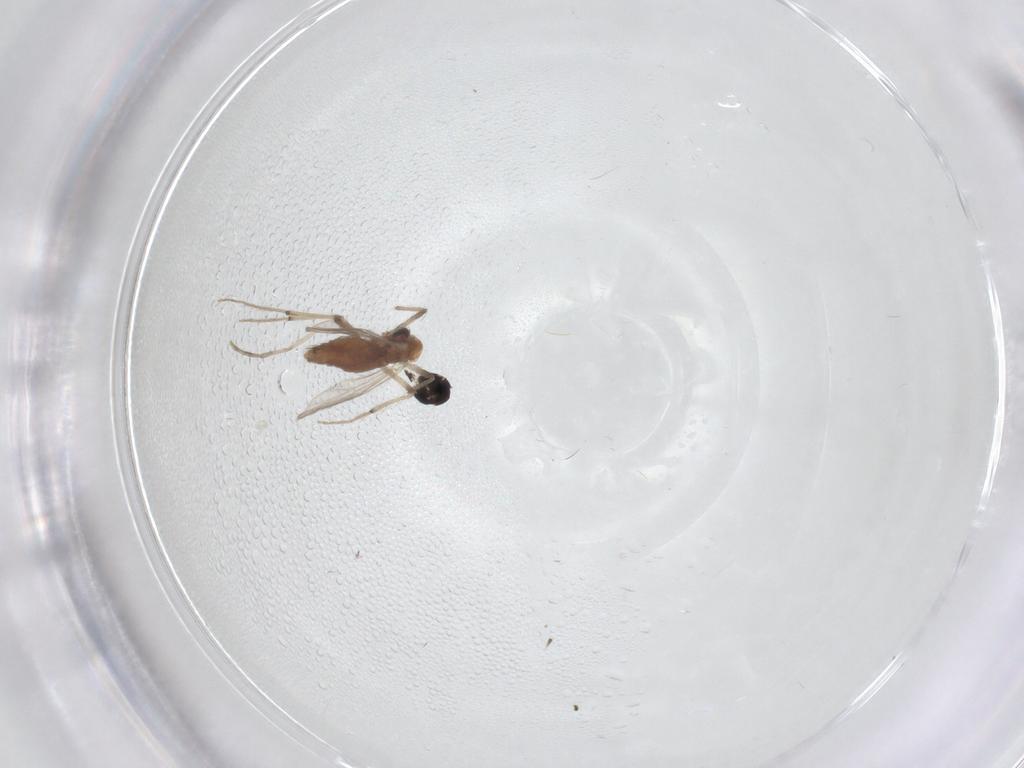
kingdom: Animalia
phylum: Arthropoda
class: Insecta
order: Diptera
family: Chironomidae
